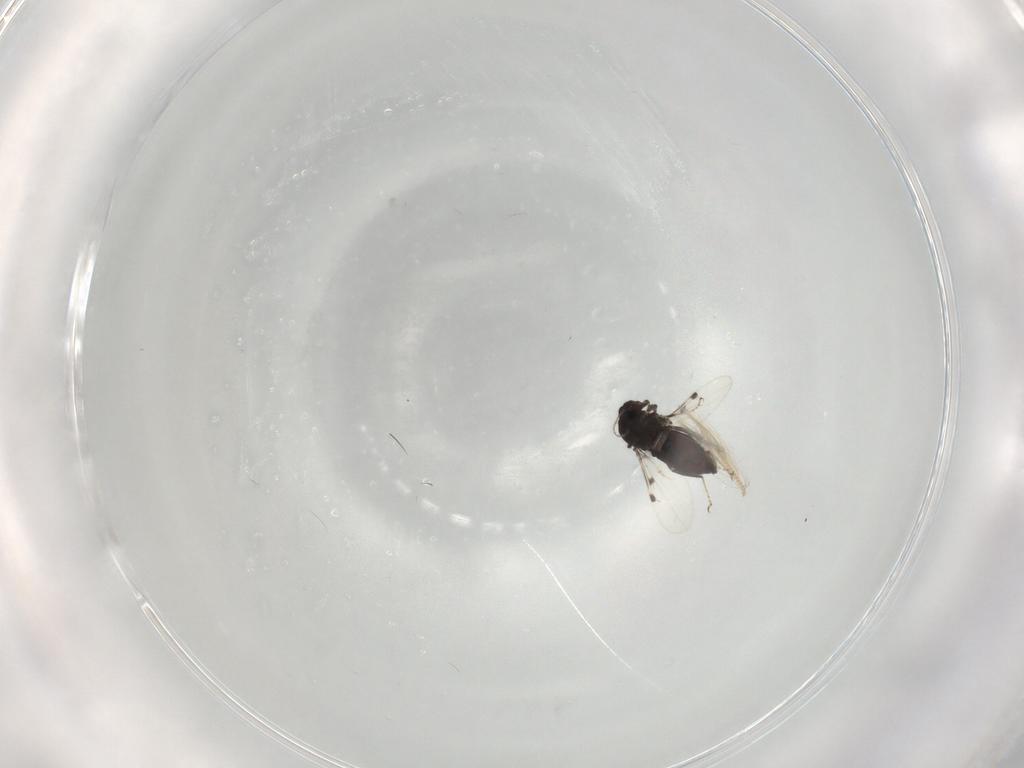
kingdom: Animalia
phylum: Arthropoda
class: Insecta
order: Diptera
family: Ceratopogonidae
